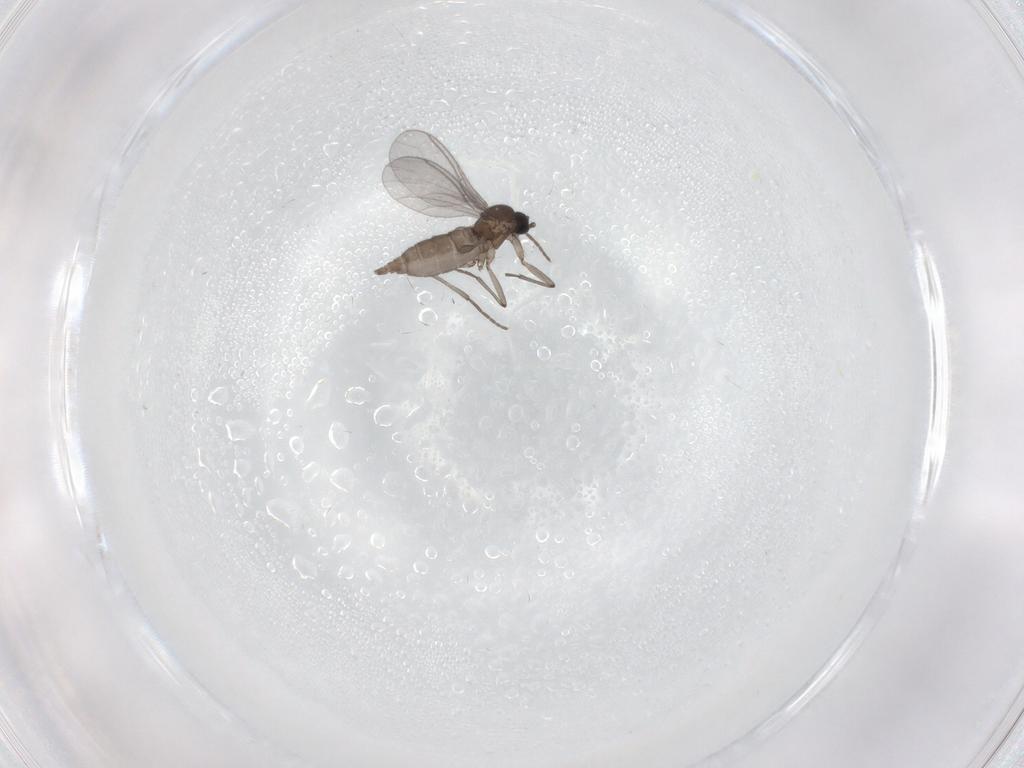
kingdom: Animalia
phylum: Arthropoda
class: Insecta
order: Diptera
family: Sciaridae
